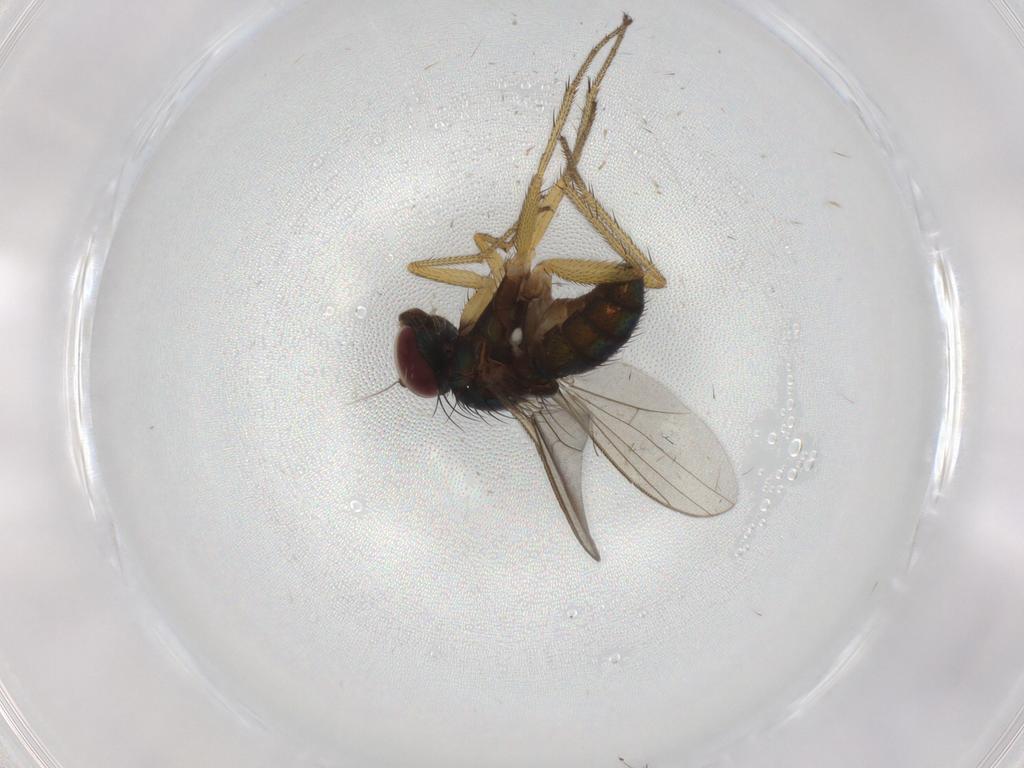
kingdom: Animalia
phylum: Arthropoda
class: Insecta
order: Diptera
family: Dolichopodidae
